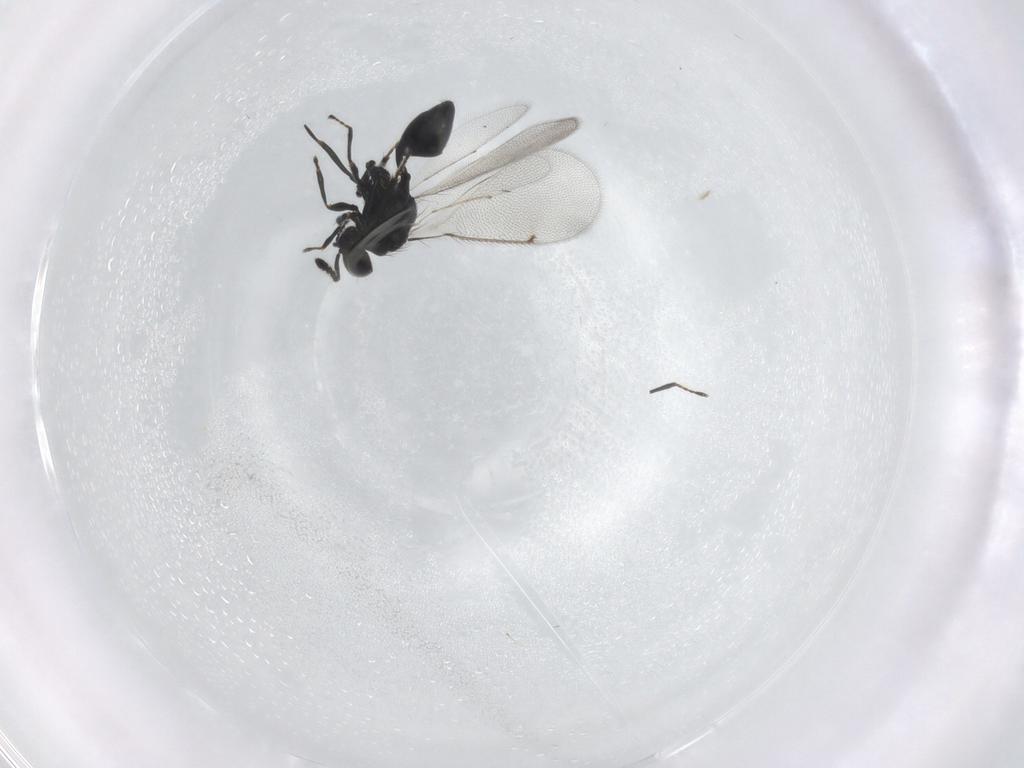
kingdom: Animalia
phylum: Arthropoda
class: Insecta
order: Hymenoptera
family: Eulophidae
